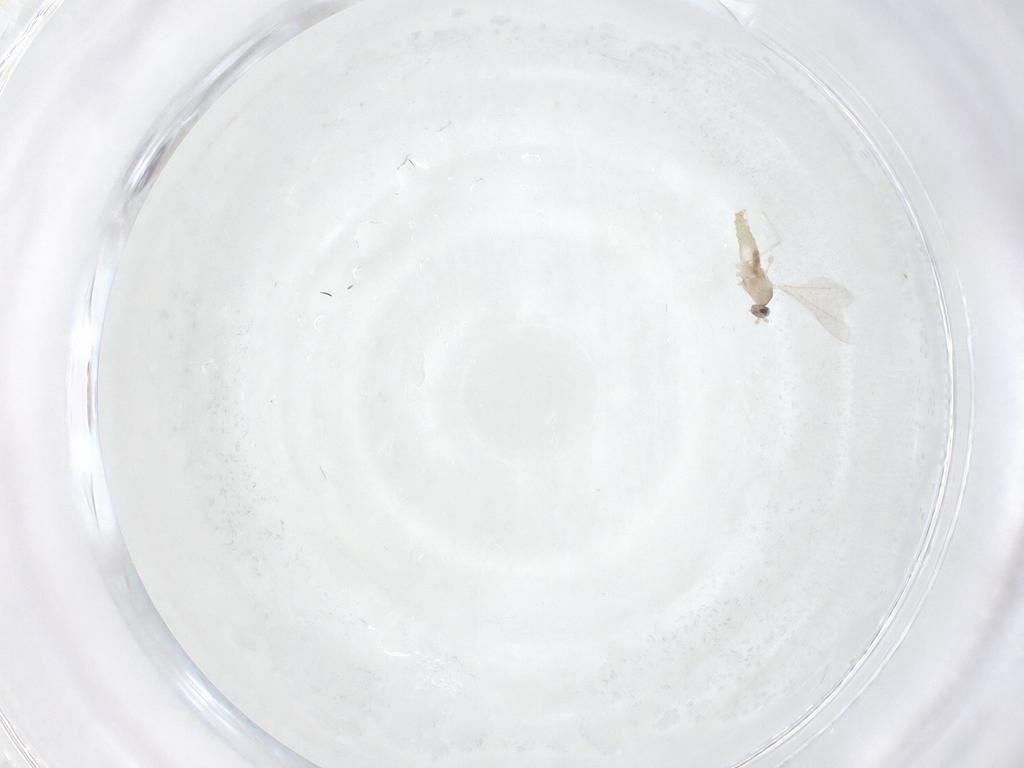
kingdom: Animalia
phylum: Arthropoda
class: Insecta
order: Diptera
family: Cecidomyiidae
